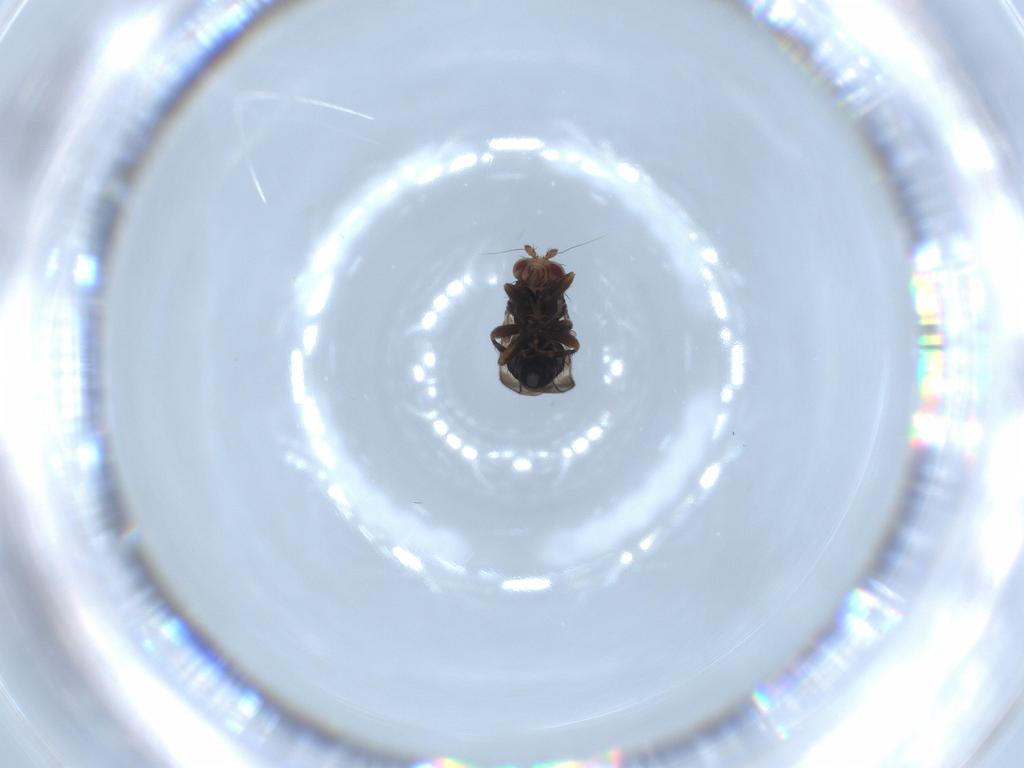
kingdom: Animalia
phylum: Arthropoda
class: Insecta
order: Diptera
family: Sphaeroceridae
